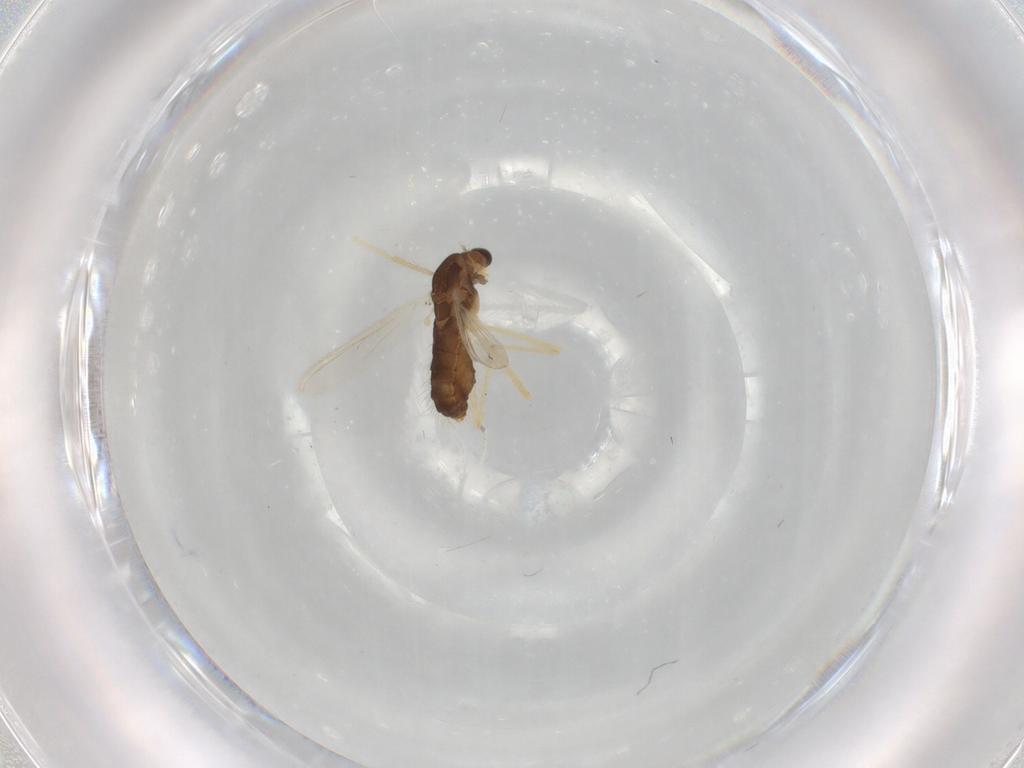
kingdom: Animalia
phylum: Arthropoda
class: Insecta
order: Diptera
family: Chironomidae
